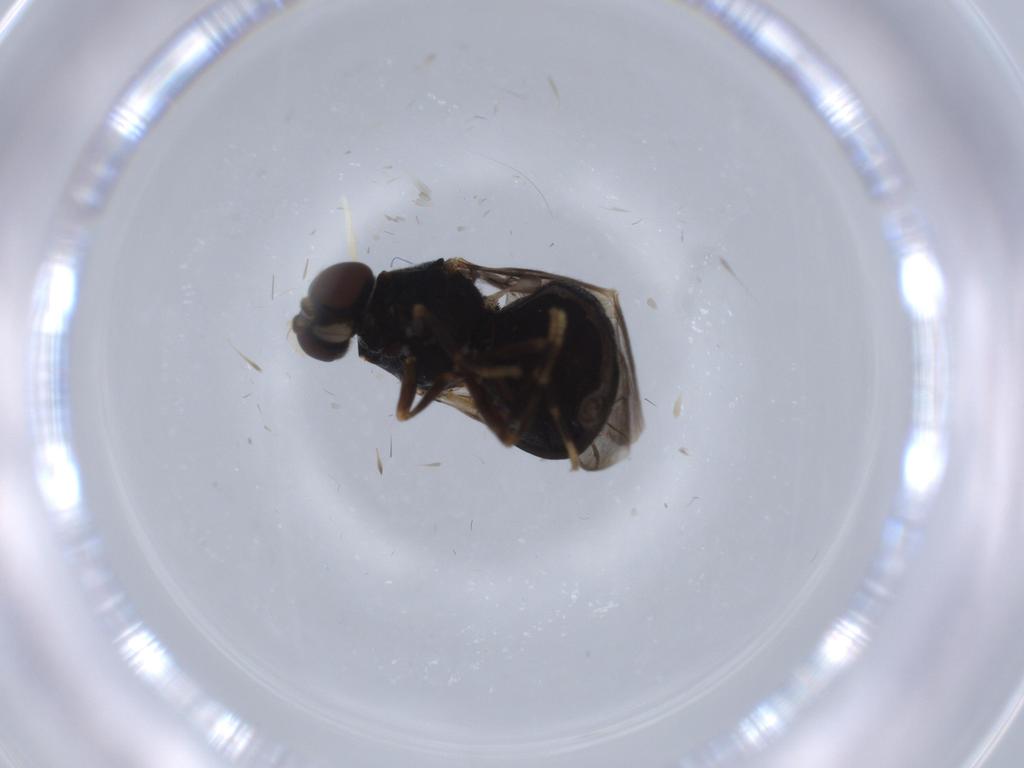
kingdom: Animalia
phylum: Arthropoda
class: Insecta
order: Diptera
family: Stratiomyidae
